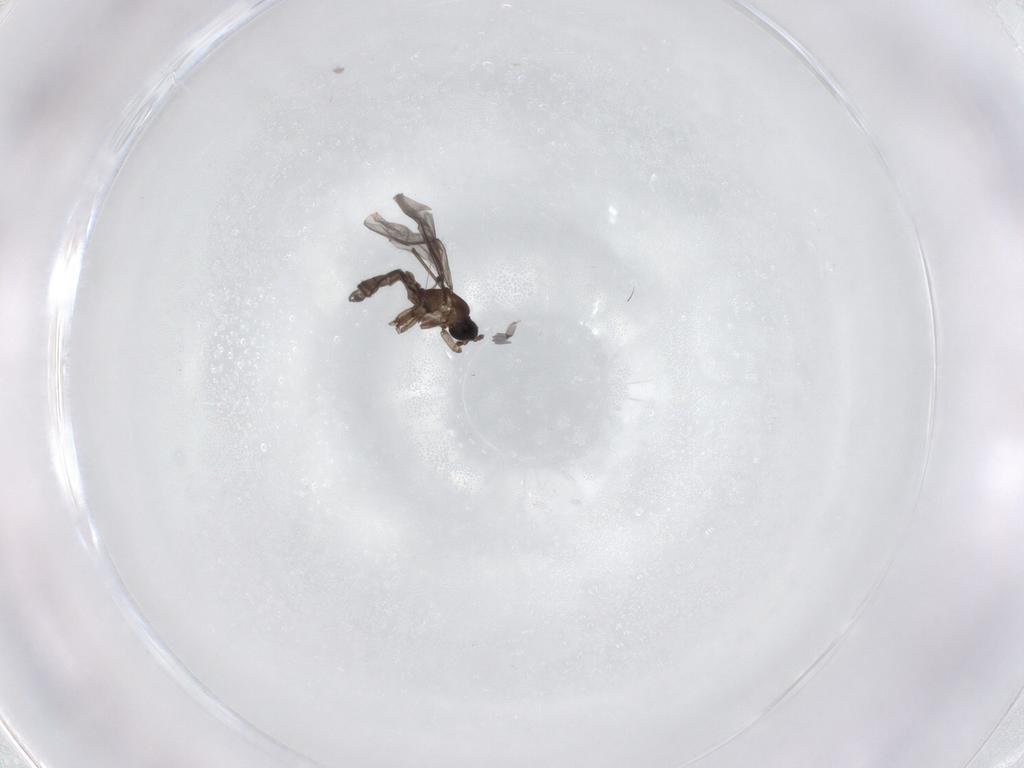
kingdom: Animalia
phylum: Arthropoda
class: Insecta
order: Diptera
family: Sciaridae
